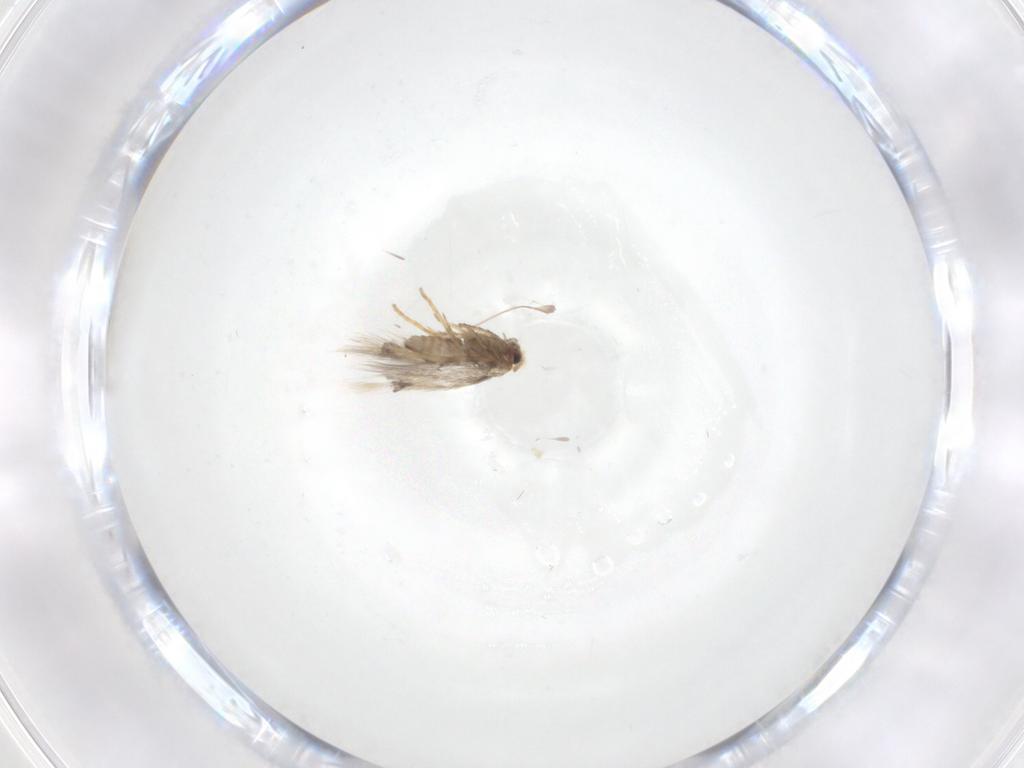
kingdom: Animalia
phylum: Arthropoda
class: Insecta
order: Lepidoptera
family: Nepticulidae
